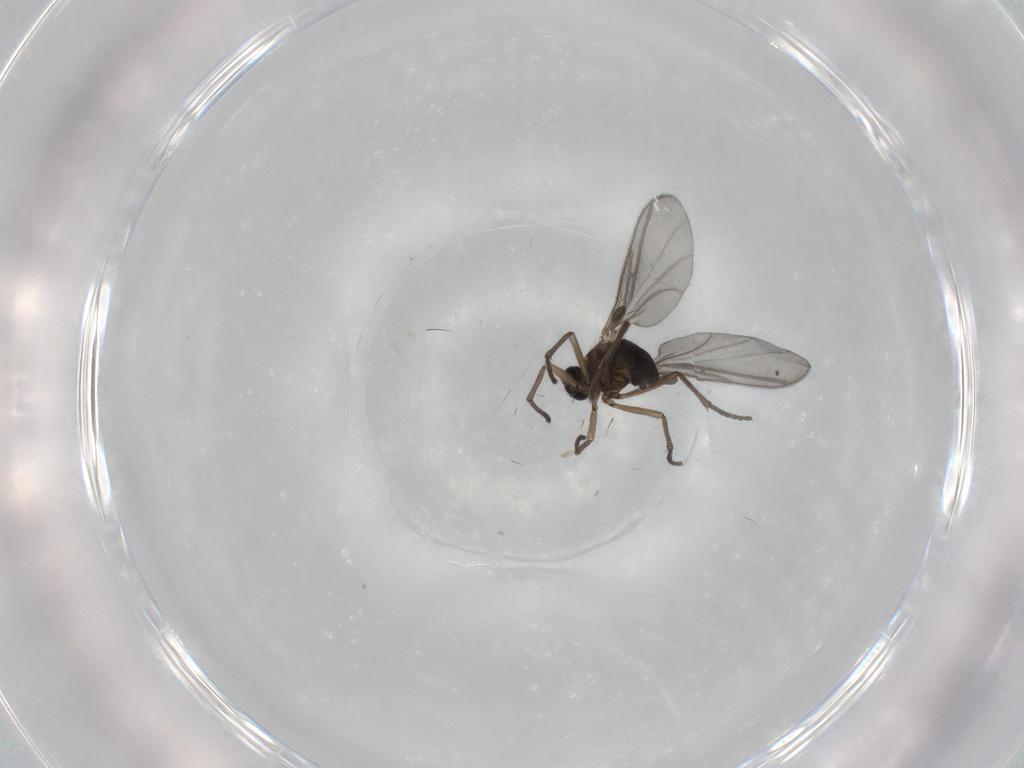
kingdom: Animalia
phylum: Arthropoda
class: Insecta
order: Diptera
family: Sciaridae
